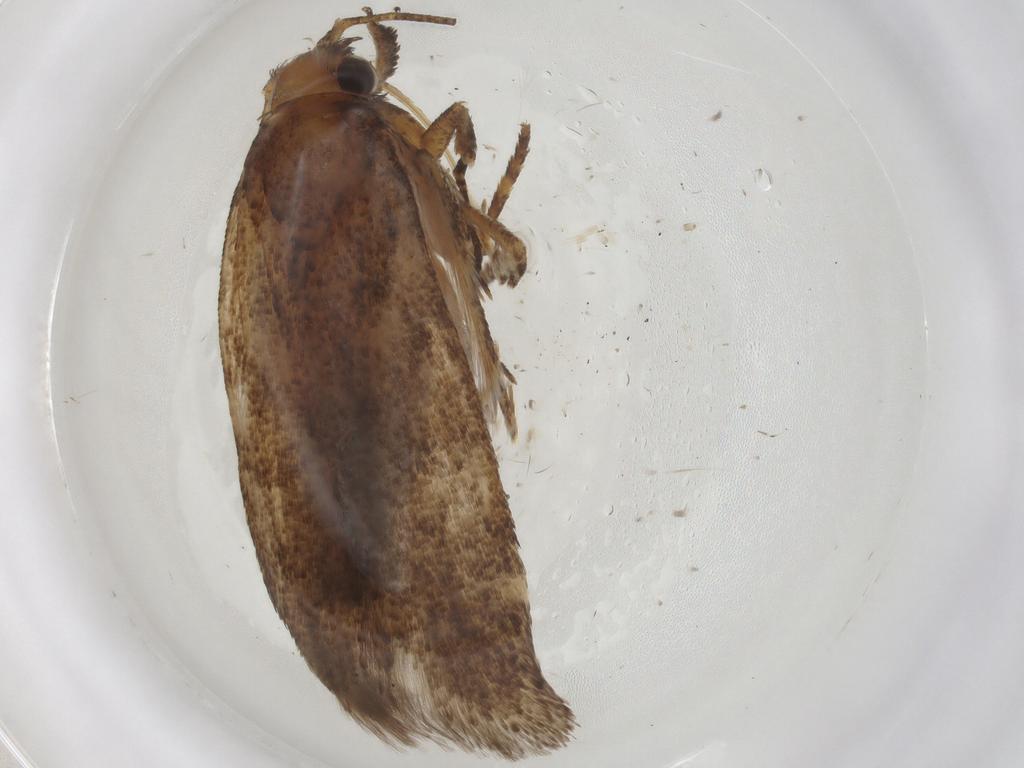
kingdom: Animalia
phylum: Arthropoda
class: Insecta
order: Lepidoptera
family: Gelechiidae
